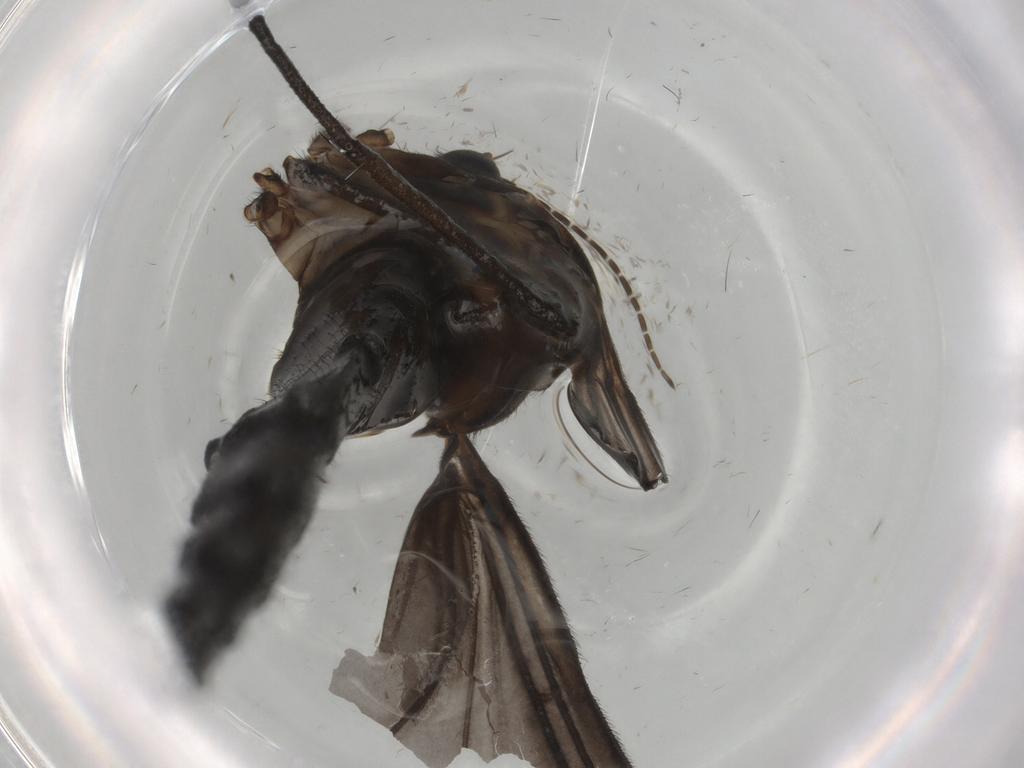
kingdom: Animalia
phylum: Arthropoda
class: Insecta
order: Diptera
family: Sciaridae
